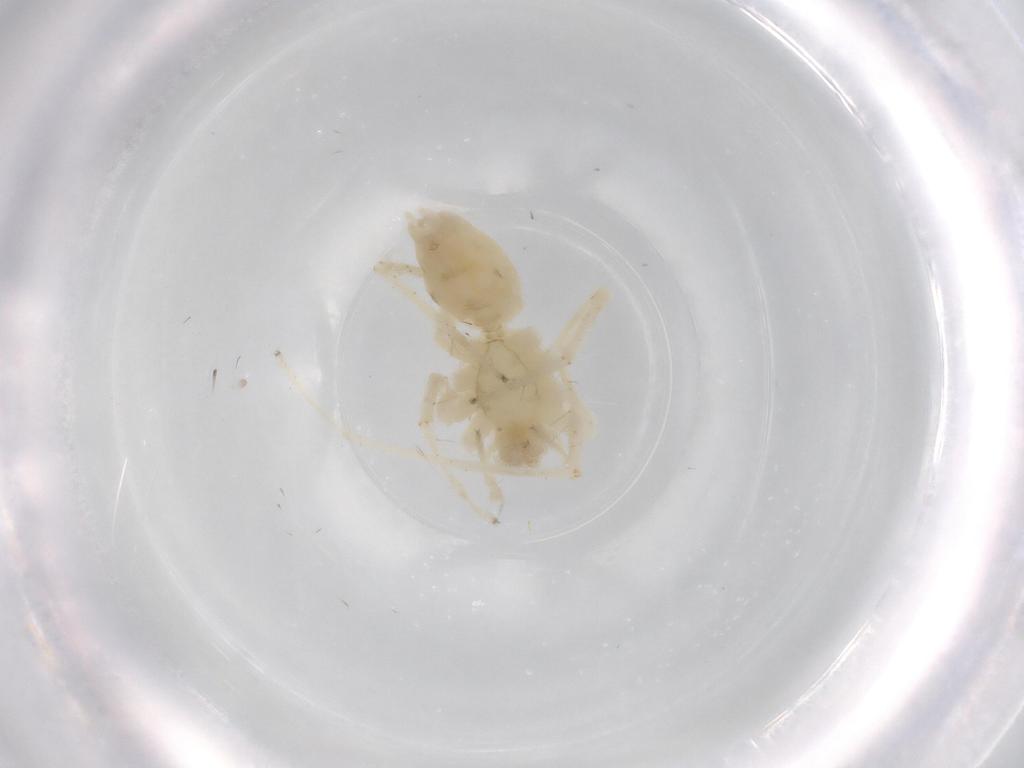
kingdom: Animalia
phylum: Arthropoda
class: Arachnida
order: Araneae
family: Anyphaenidae
